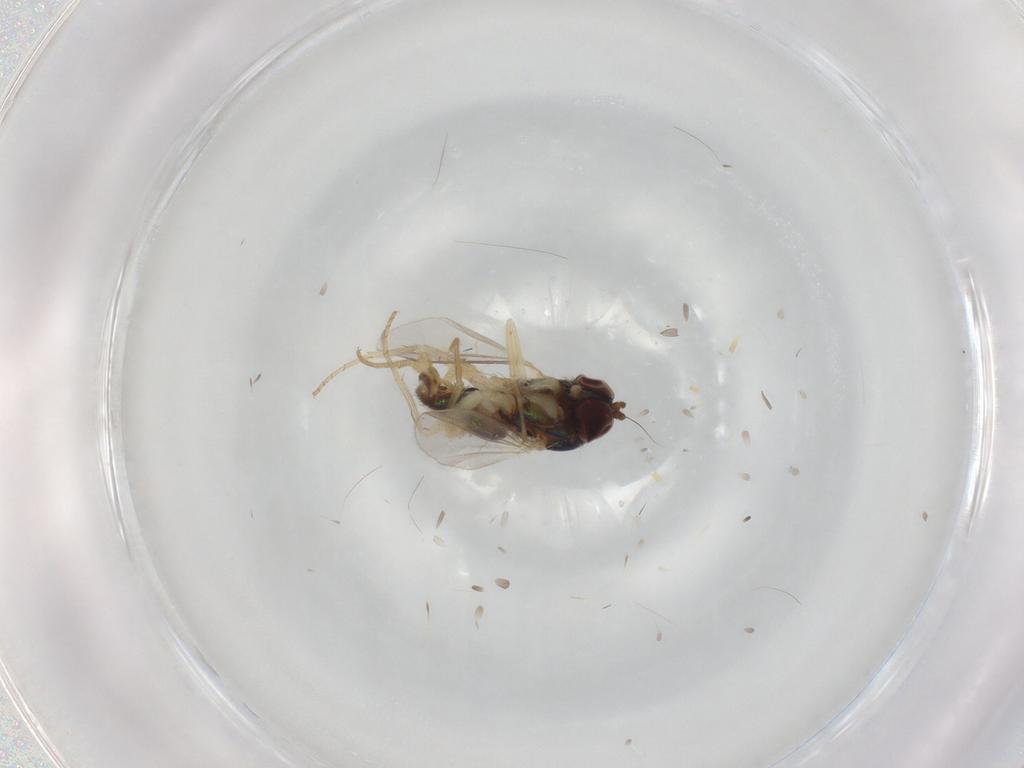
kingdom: Animalia
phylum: Arthropoda
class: Insecta
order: Diptera
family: Dolichopodidae
